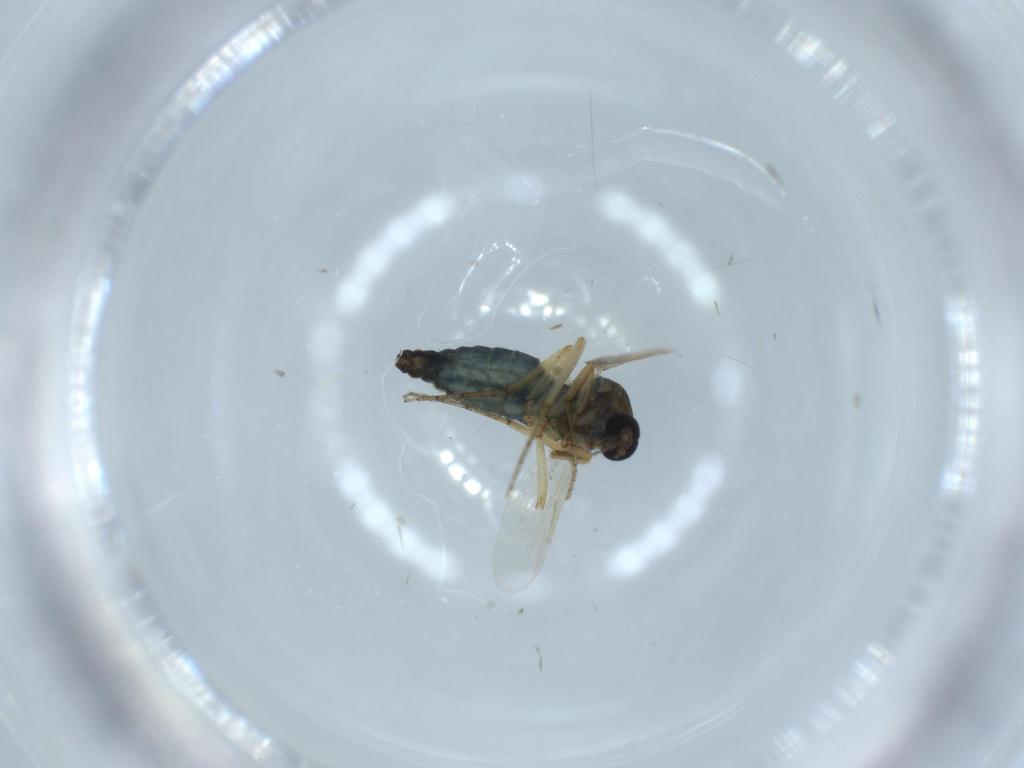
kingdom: Animalia
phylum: Arthropoda
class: Insecta
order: Diptera
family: Ceratopogonidae
